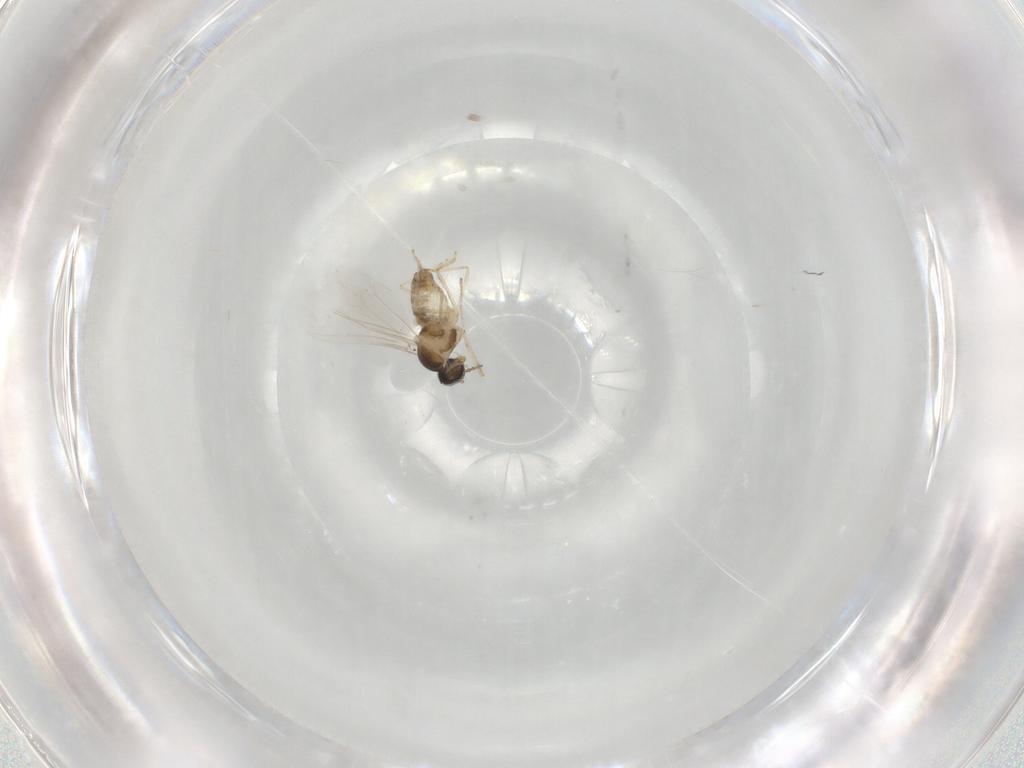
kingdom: Animalia
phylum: Arthropoda
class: Insecta
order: Diptera
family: Cecidomyiidae
